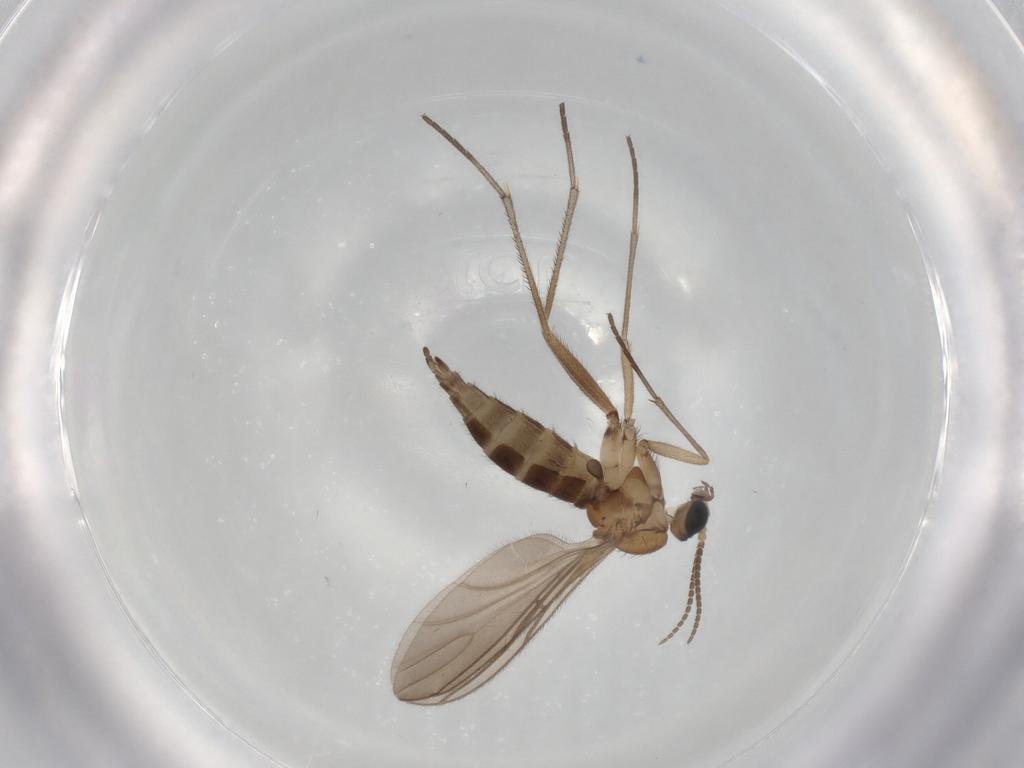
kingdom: Animalia
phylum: Arthropoda
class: Insecta
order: Diptera
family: Sciaridae
